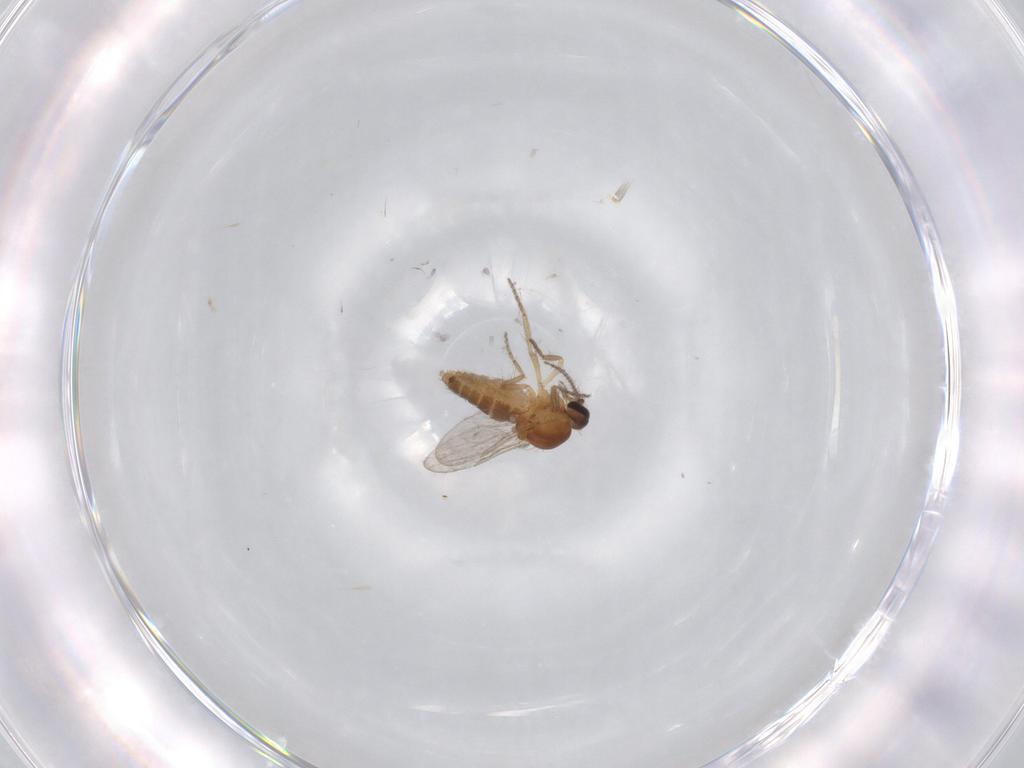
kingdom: Animalia
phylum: Arthropoda
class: Insecta
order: Diptera
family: Ceratopogonidae
